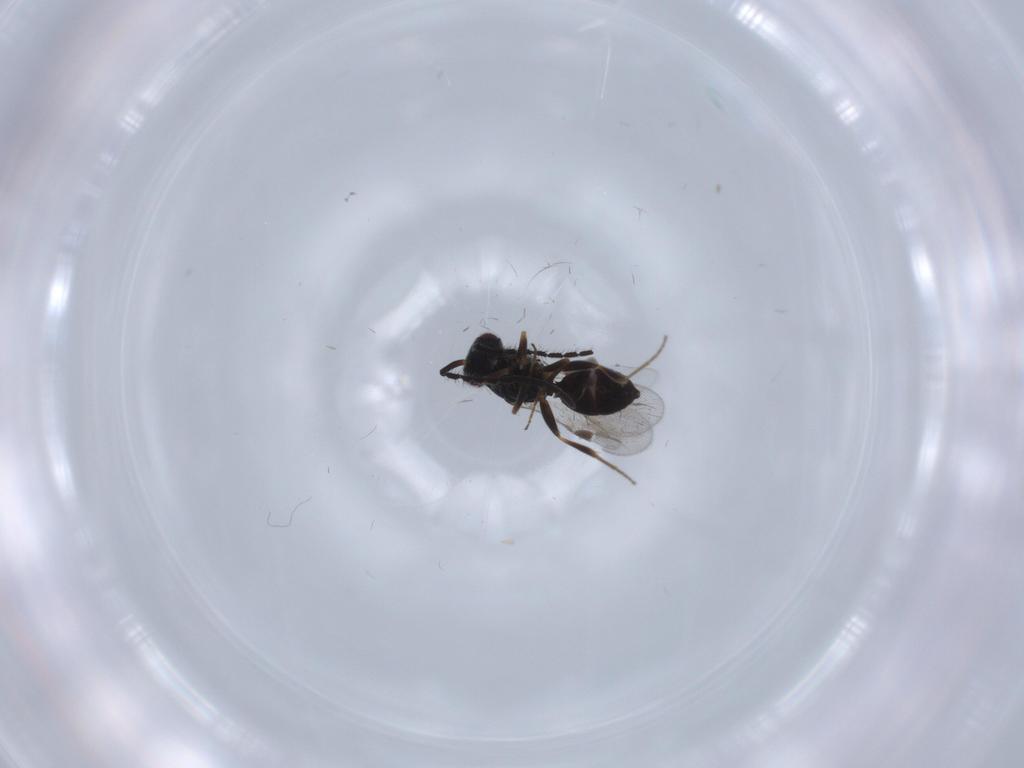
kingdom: Animalia
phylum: Arthropoda
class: Insecta
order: Hymenoptera
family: Megaspilidae
